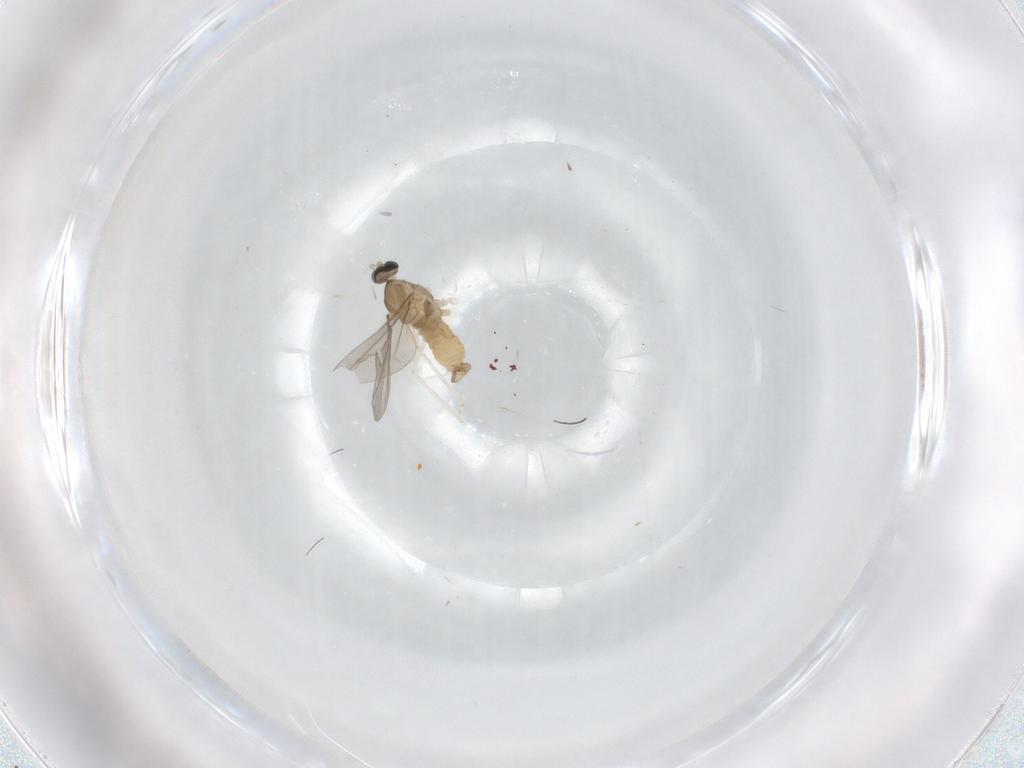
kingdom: Animalia
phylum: Arthropoda
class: Insecta
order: Diptera
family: Cecidomyiidae
